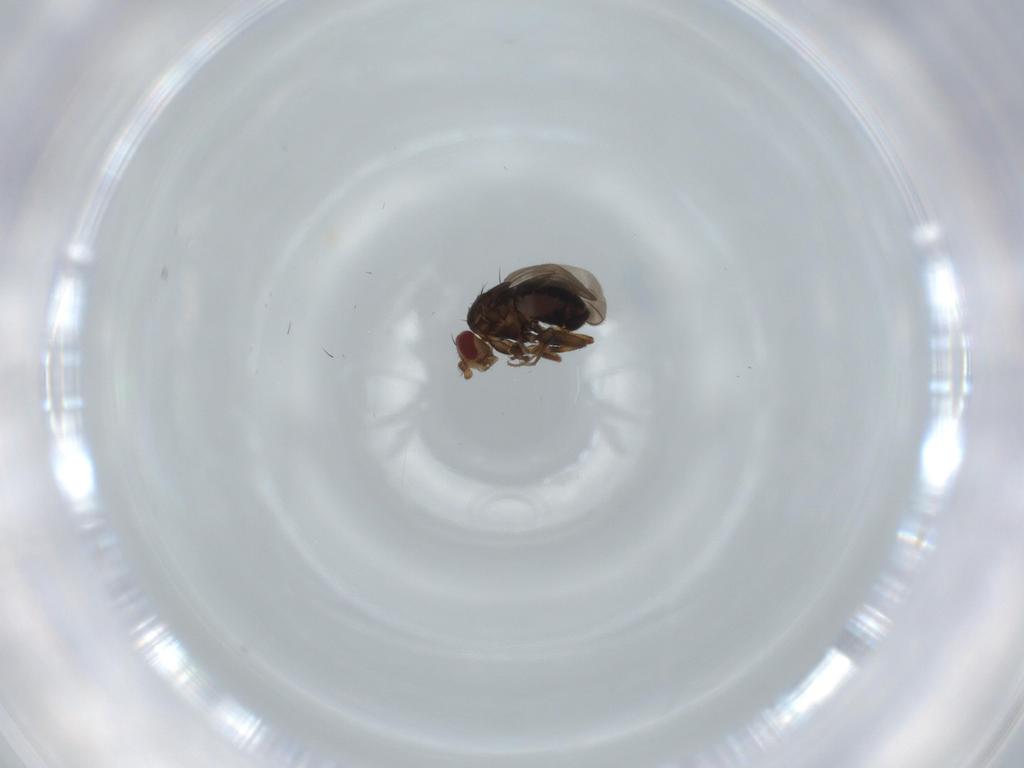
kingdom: Animalia
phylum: Arthropoda
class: Insecta
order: Diptera
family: Sphaeroceridae
